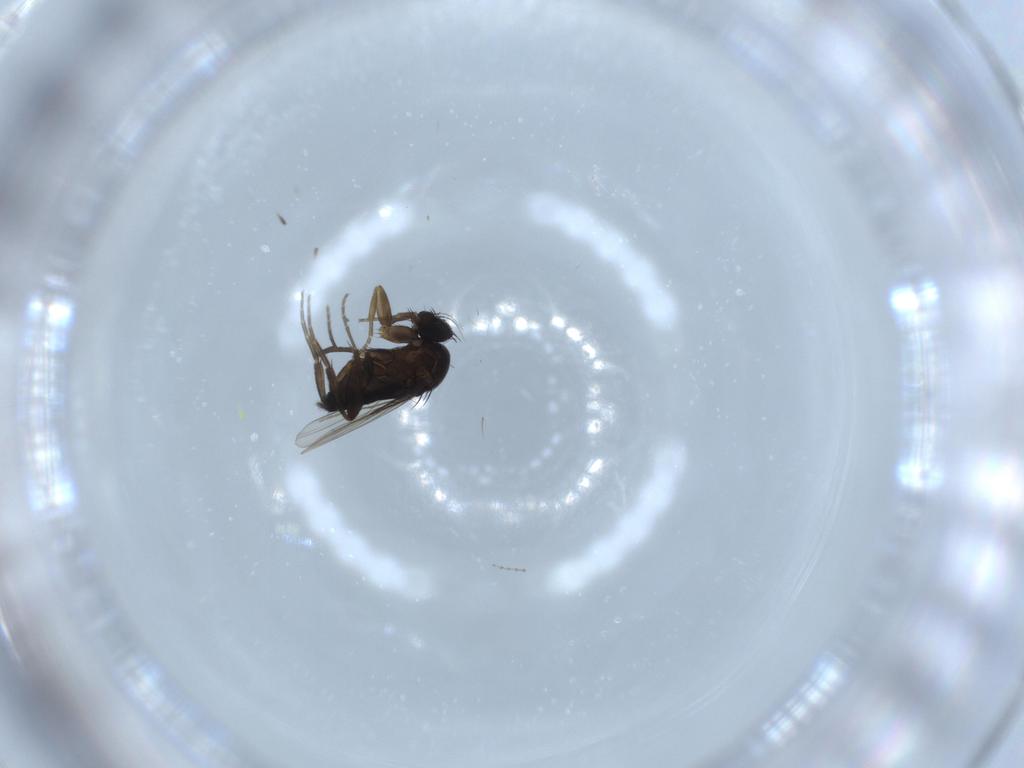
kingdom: Animalia
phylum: Arthropoda
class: Insecta
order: Diptera
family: Phoridae
